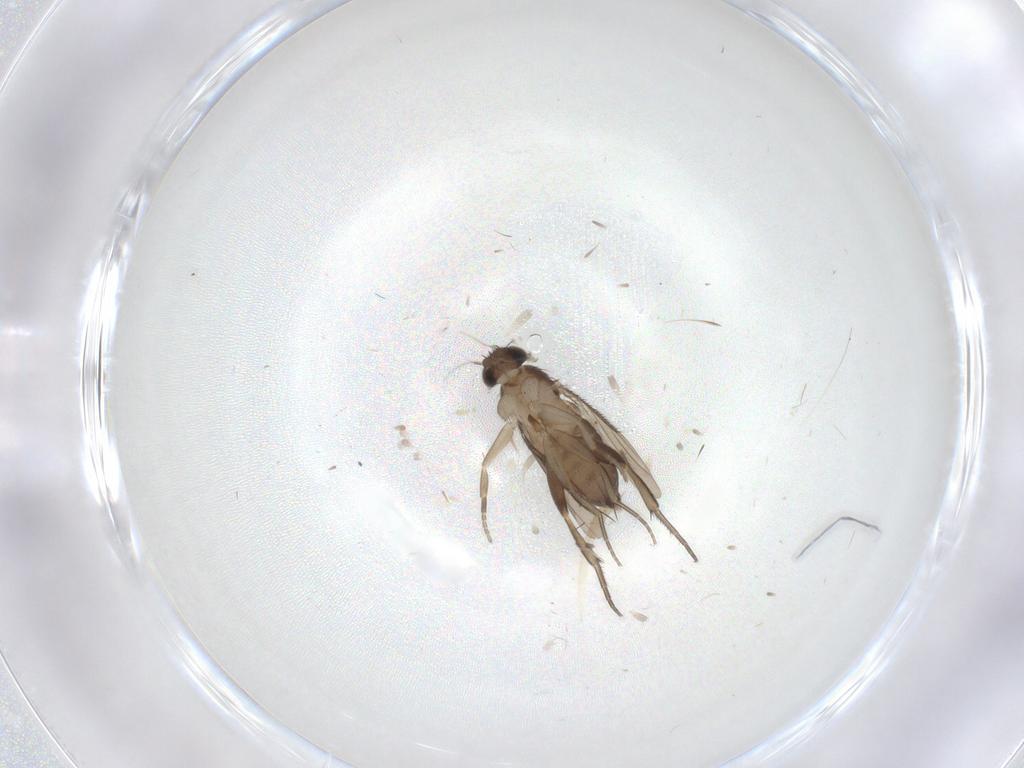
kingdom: Animalia
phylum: Arthropoda
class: Insecta
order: Diptera
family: Phoridae
